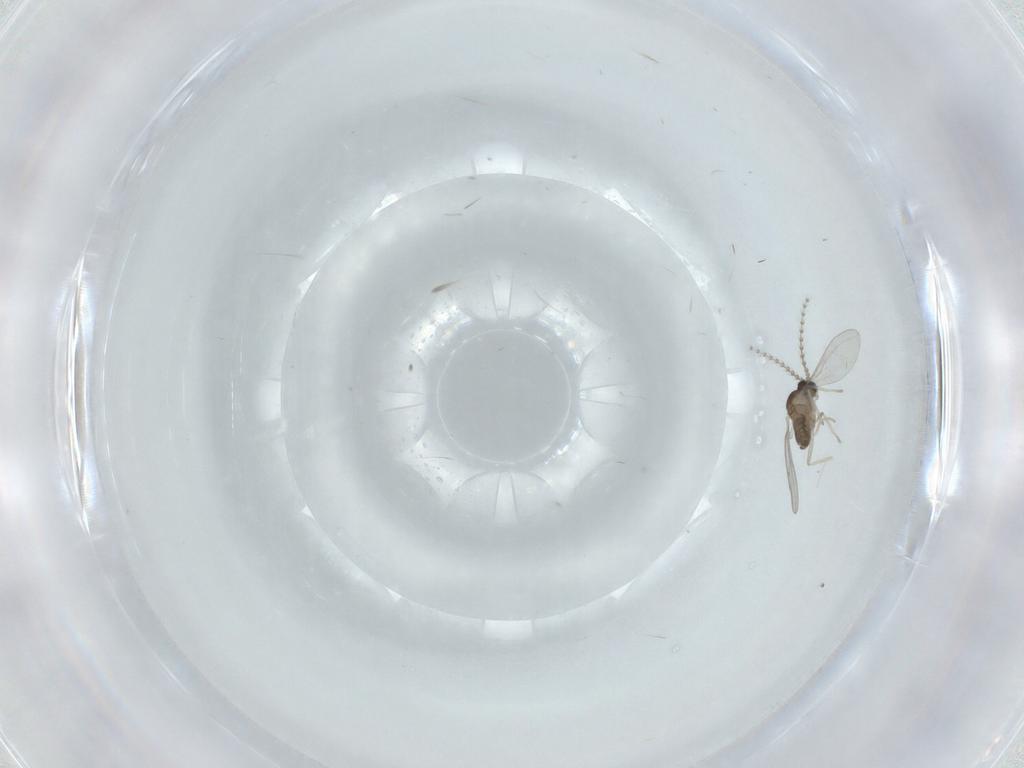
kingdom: Animalia
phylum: Arthropoda
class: Insecta
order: Diptera
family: Cecidomyiidae
